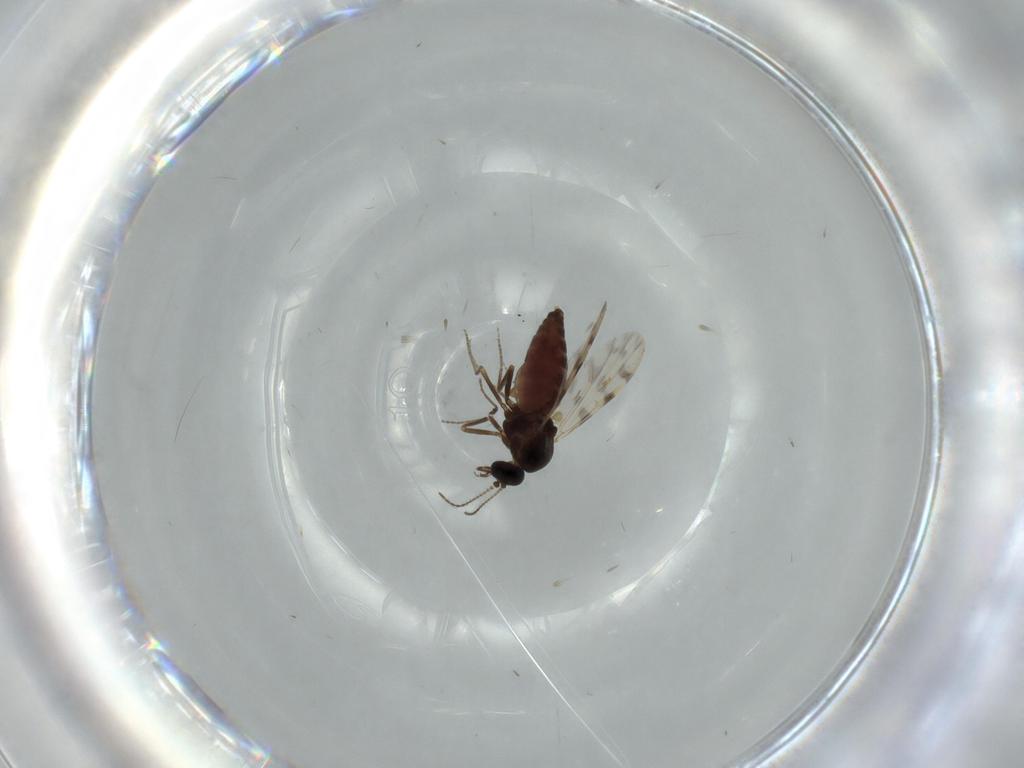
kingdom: Animalia
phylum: Arthropoda
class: Insecta
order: Diptera
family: Ceratopogonidae
